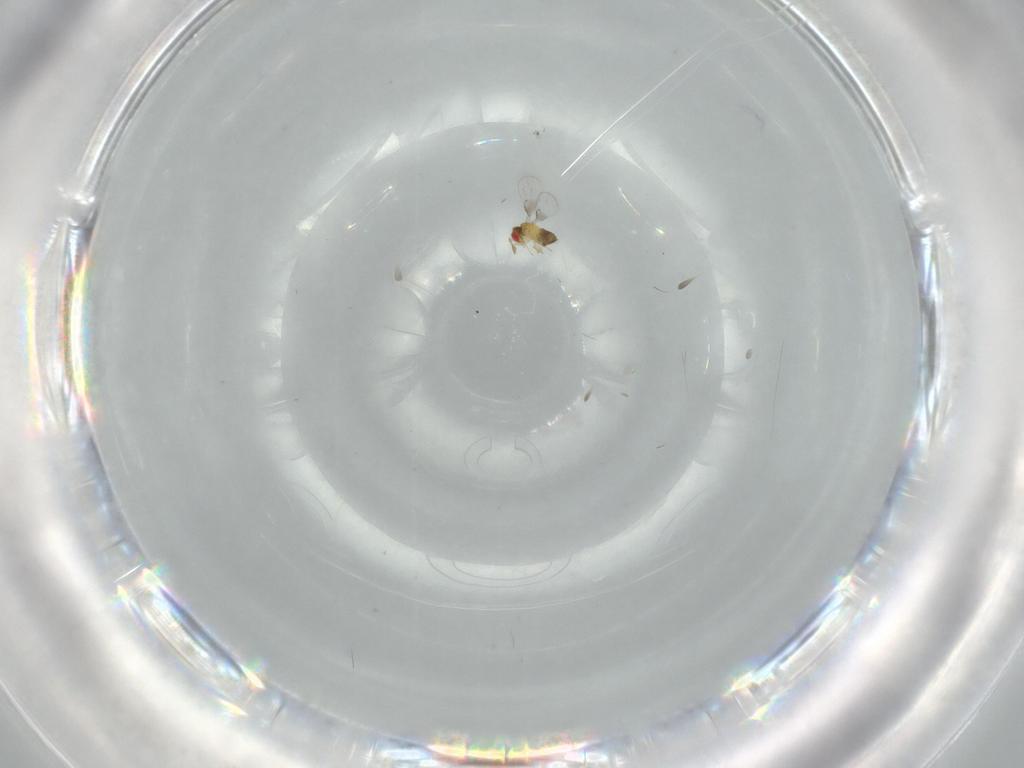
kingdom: Animalia
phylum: Arthropoda
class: Insecta
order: Hymenoptera
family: Trichogrammatidae
